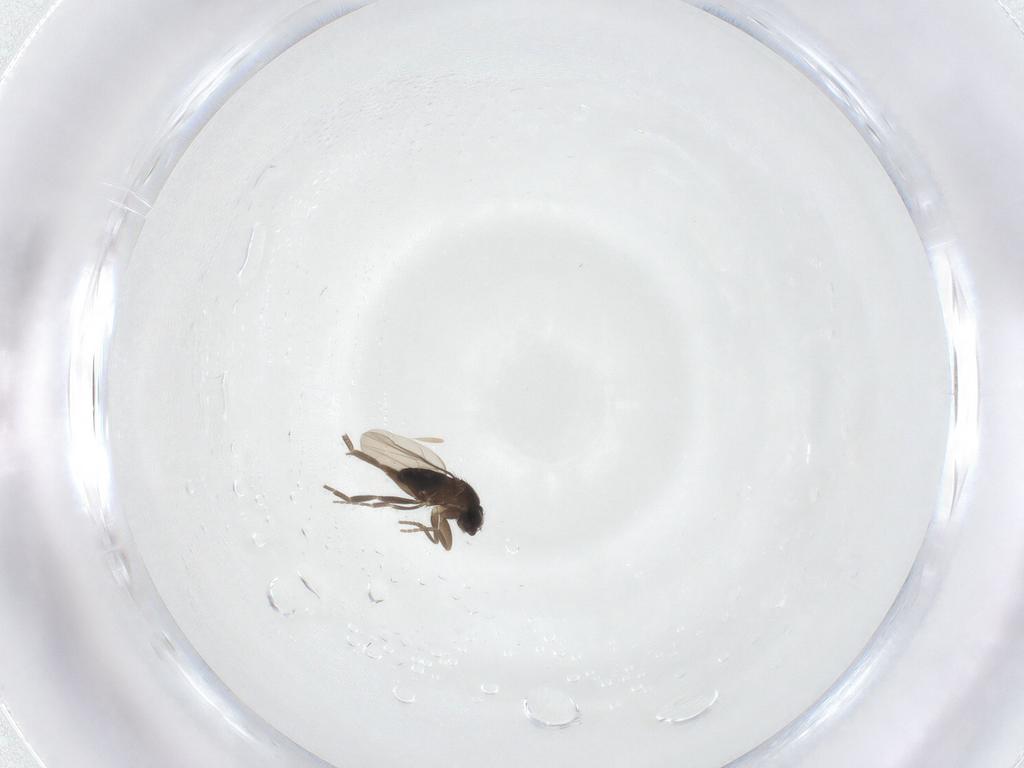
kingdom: Animalia
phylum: Arthropoda
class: Insecta
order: Diptera
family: Phoridae
